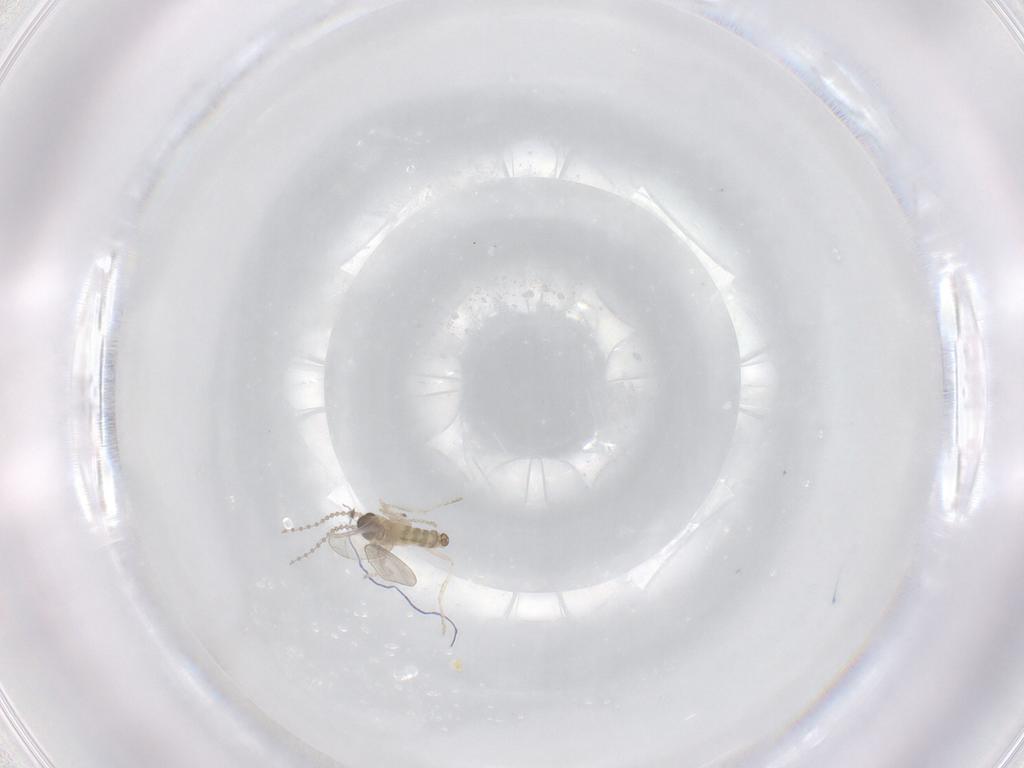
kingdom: Animalia
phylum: Arthropoda
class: Insecta
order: Diptera
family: Cecidomyiidae
